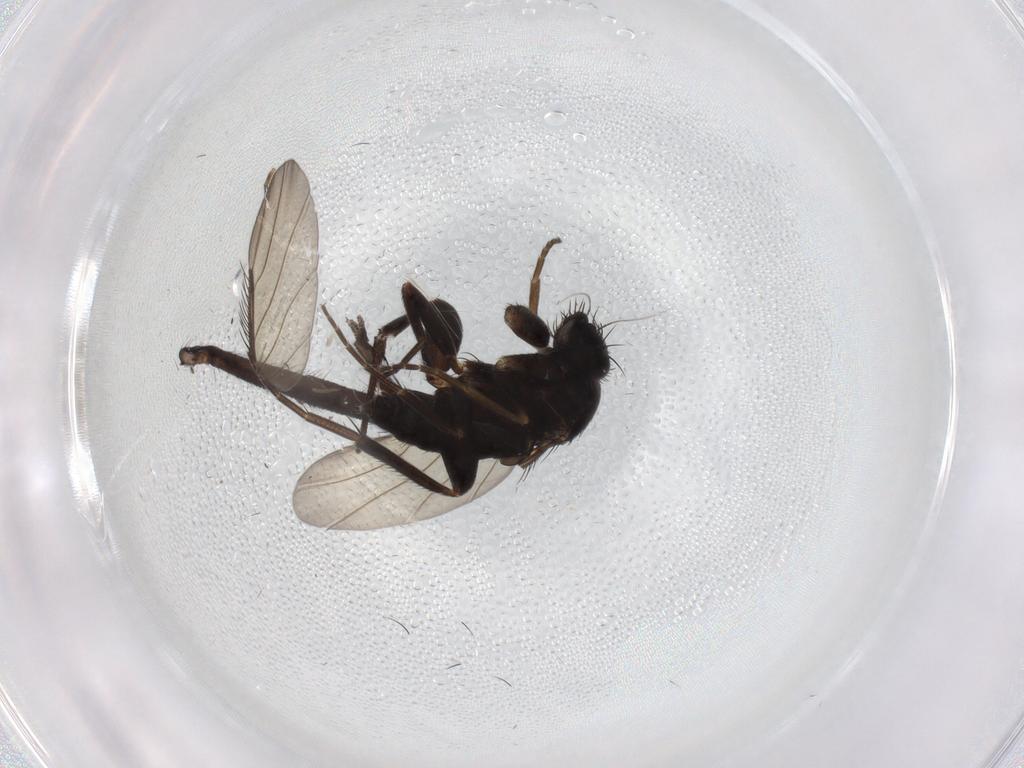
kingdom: Animalia
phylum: Arthropoda
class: Insecta
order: Diptera
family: Phoridae
